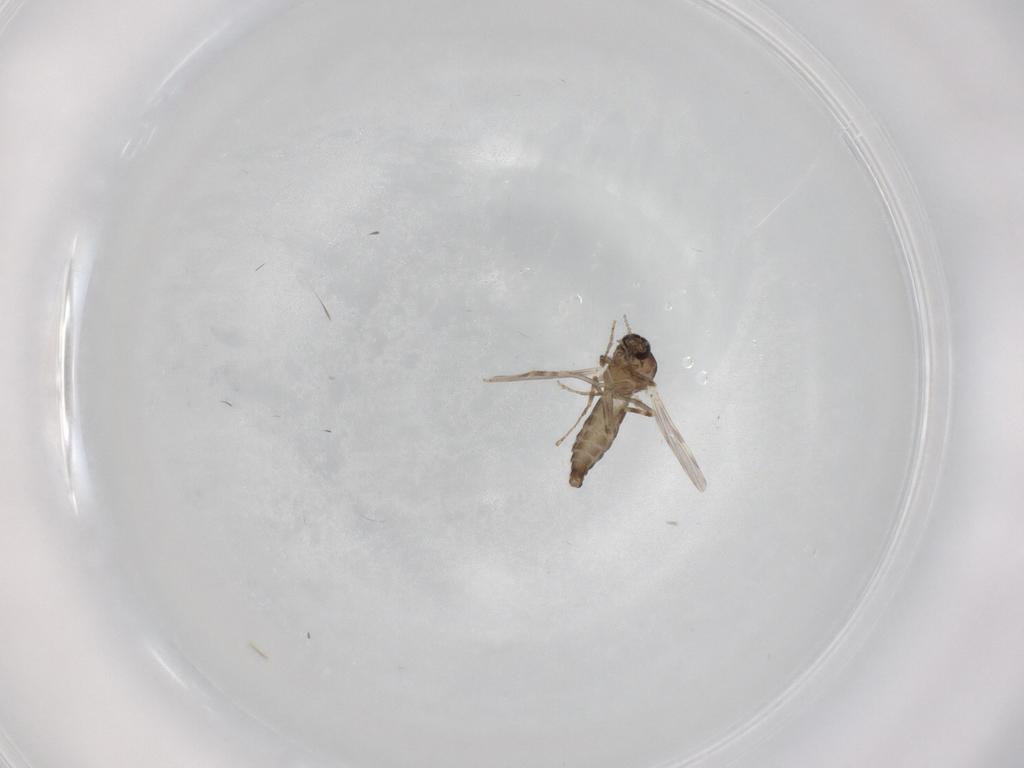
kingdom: Animalia
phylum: Arthropoda
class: Insecta
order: Diptera
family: Ceratopogonidae
